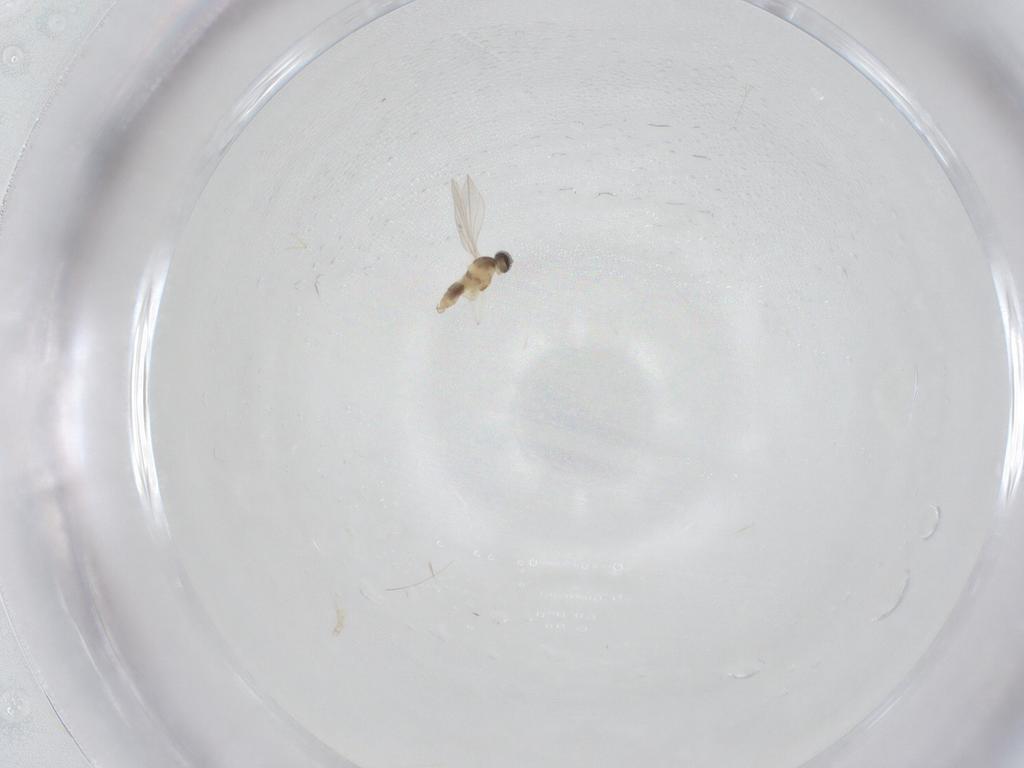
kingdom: Animalia
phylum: Arthropoda
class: Insecta
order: Diptera
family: Cecidomyiidae
